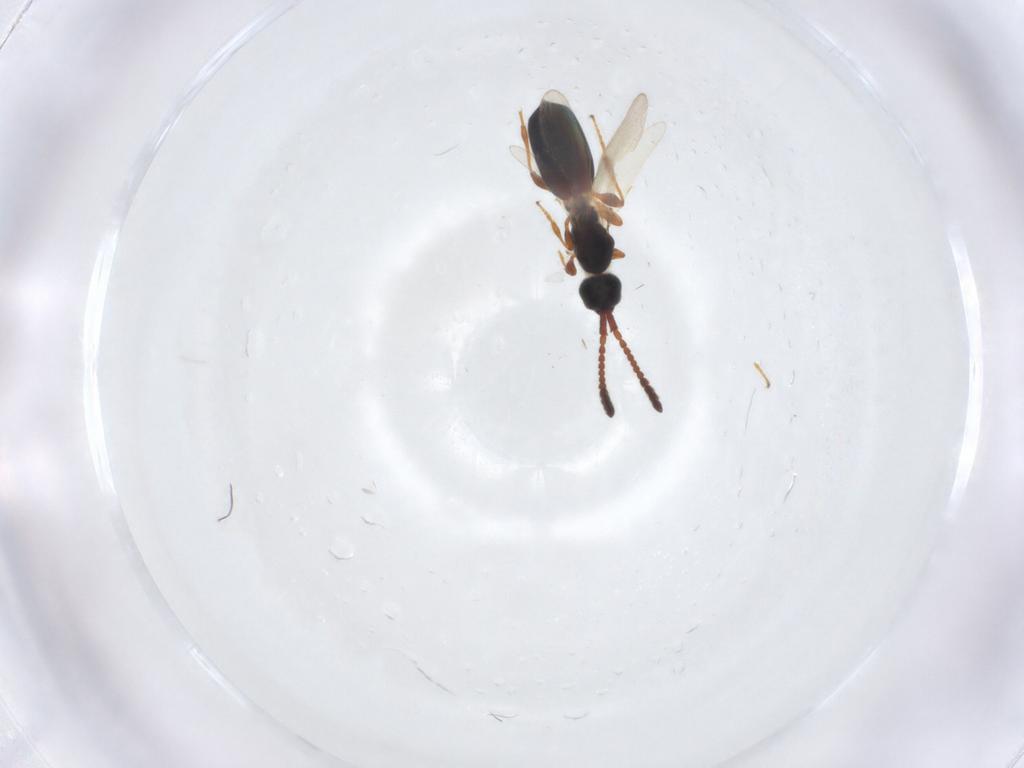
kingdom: Animalia
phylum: Arthropoda
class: Insecta
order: Hymenoptera
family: Diapriidae
